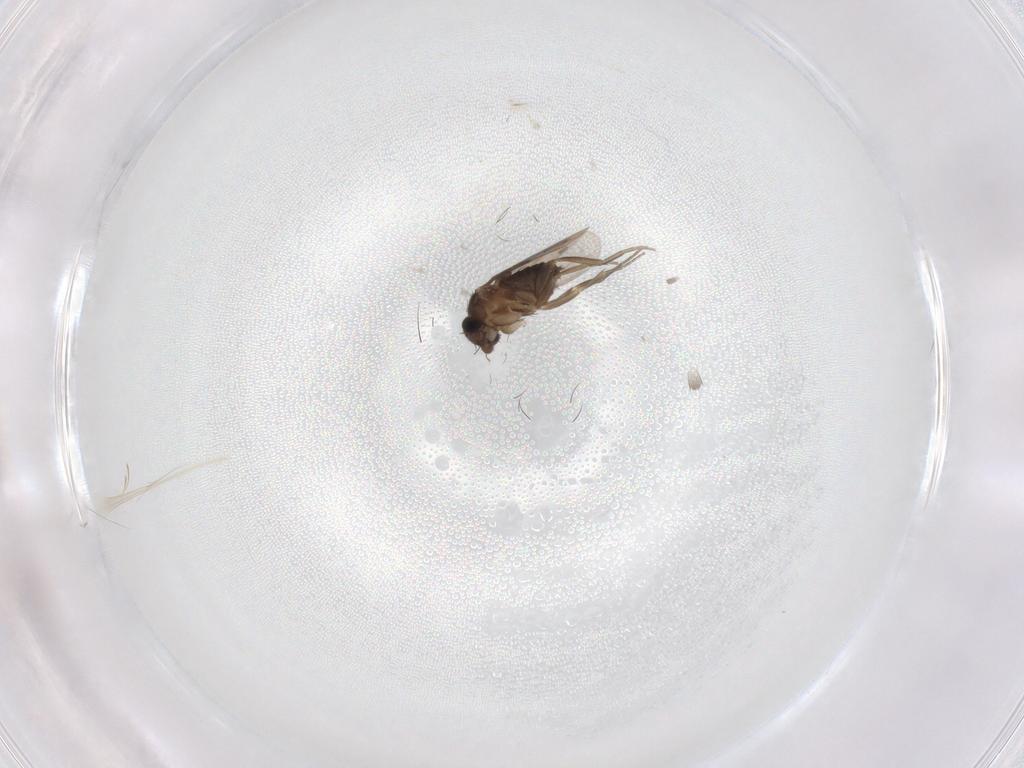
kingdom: Animalia
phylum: Arthropoda
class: Insecta
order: Diptera
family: Phoridae
